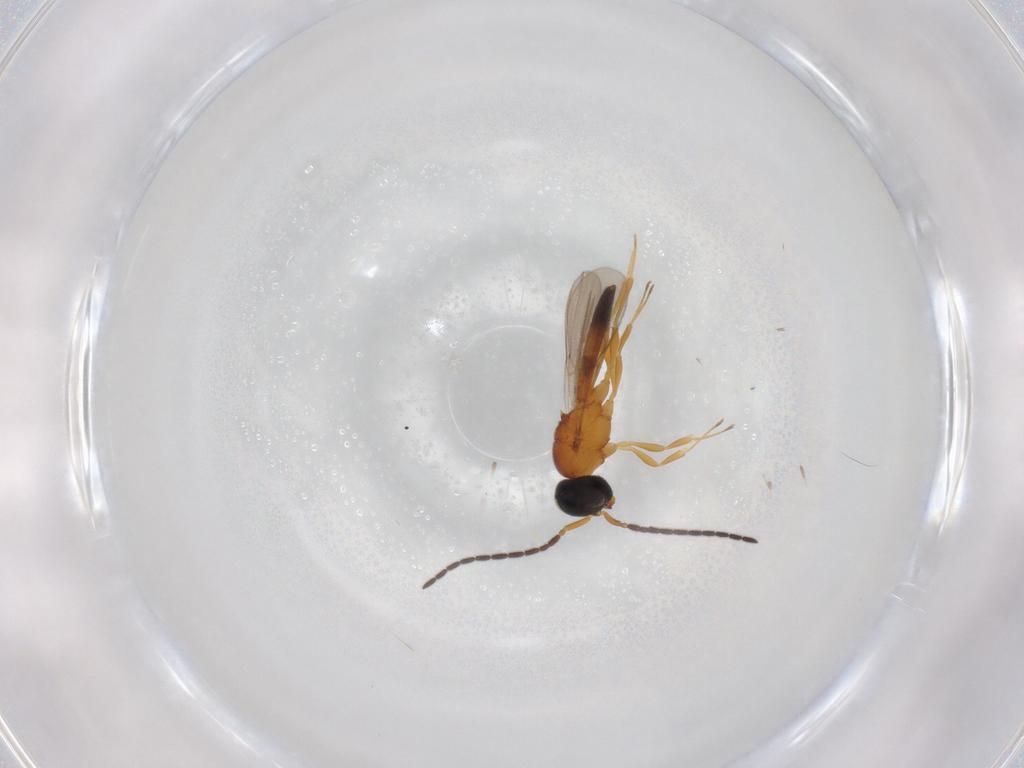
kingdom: Animalia
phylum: Arthropoda
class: Insecta
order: Hymenoptera
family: Scelionidae
